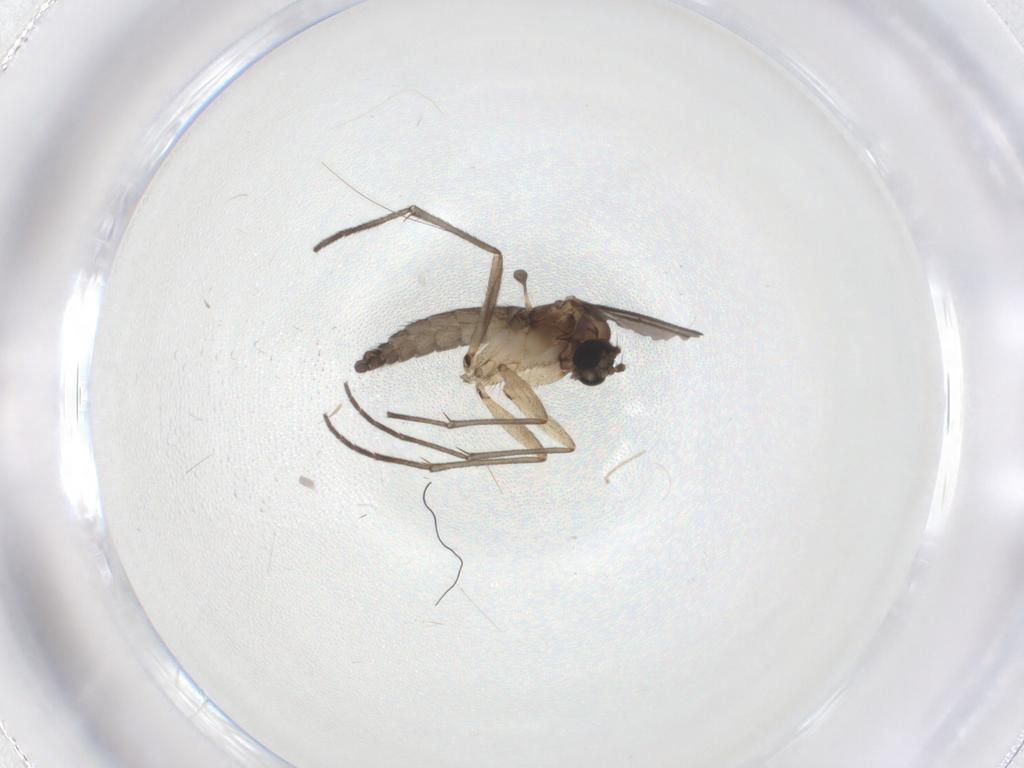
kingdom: Animalia
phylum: Arthropoda
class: Insecta
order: Diptera
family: Sciaridae
